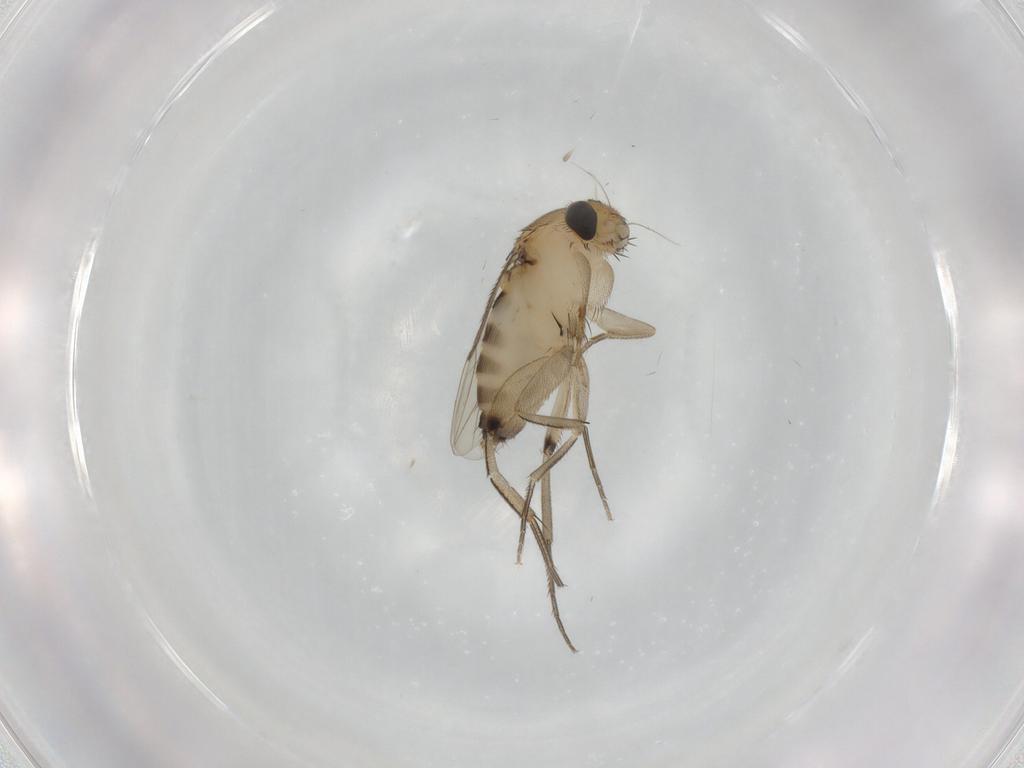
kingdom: Animalia
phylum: Arthropoda
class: Insecta
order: Diptera
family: Phoridae
